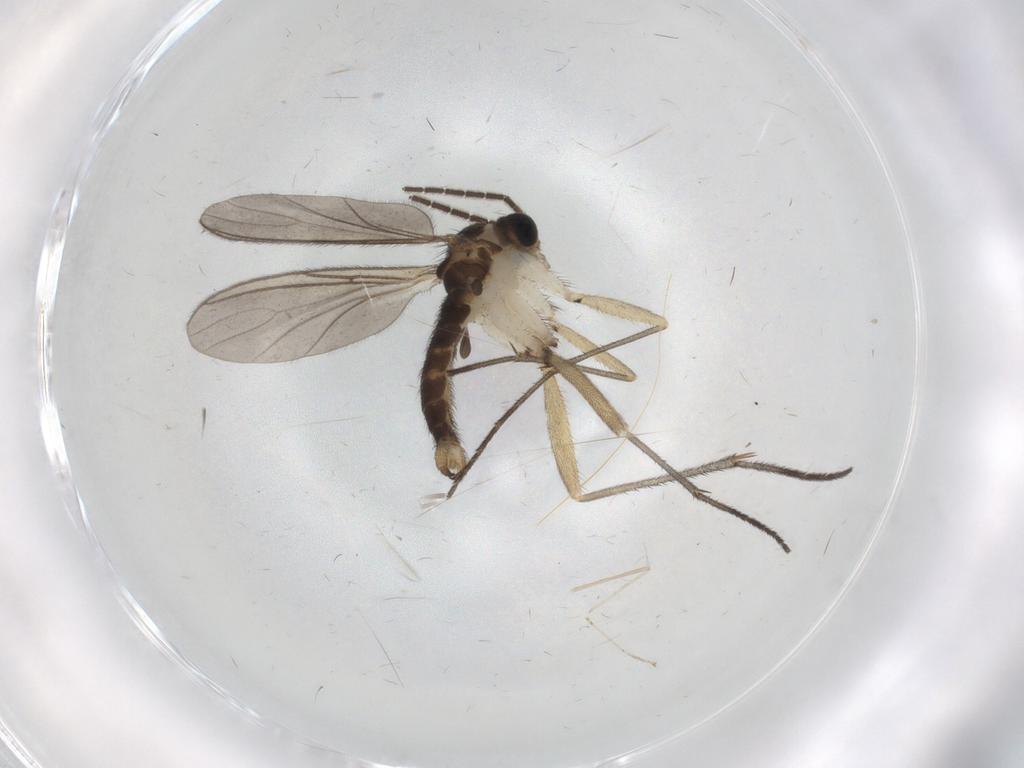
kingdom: Animalia
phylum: Arthropoda
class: Insecta
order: Diptera
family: Sciaridae
